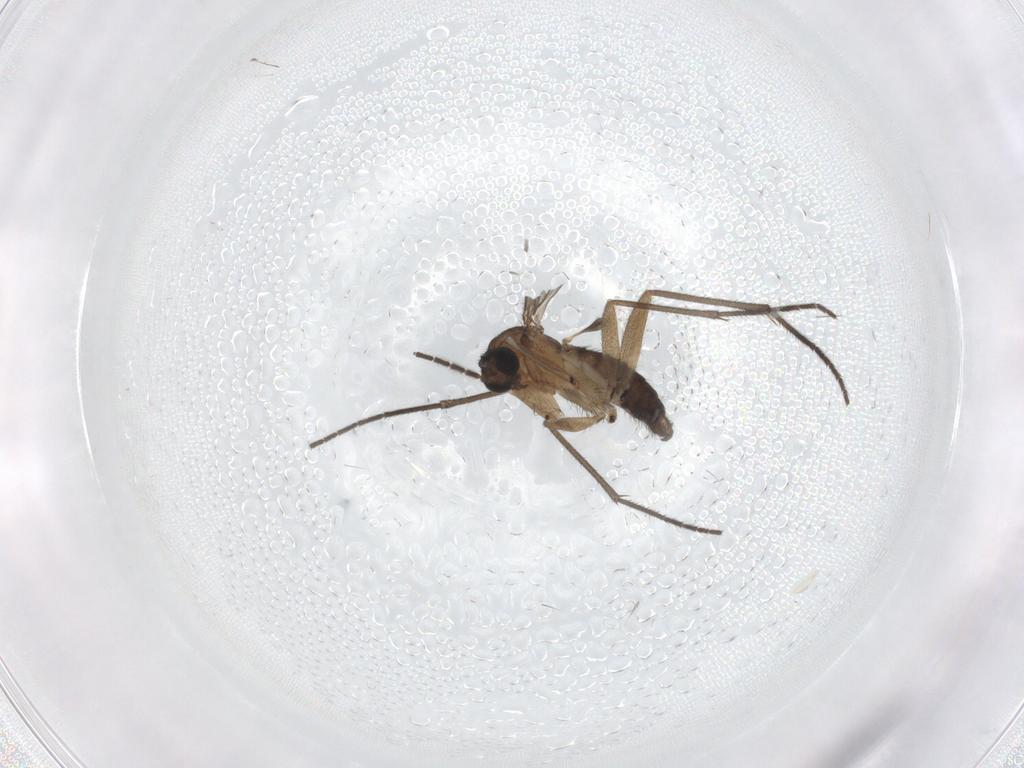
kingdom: Animalia
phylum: Arthropoda
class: Insecta
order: Diptera
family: Sciaridae
